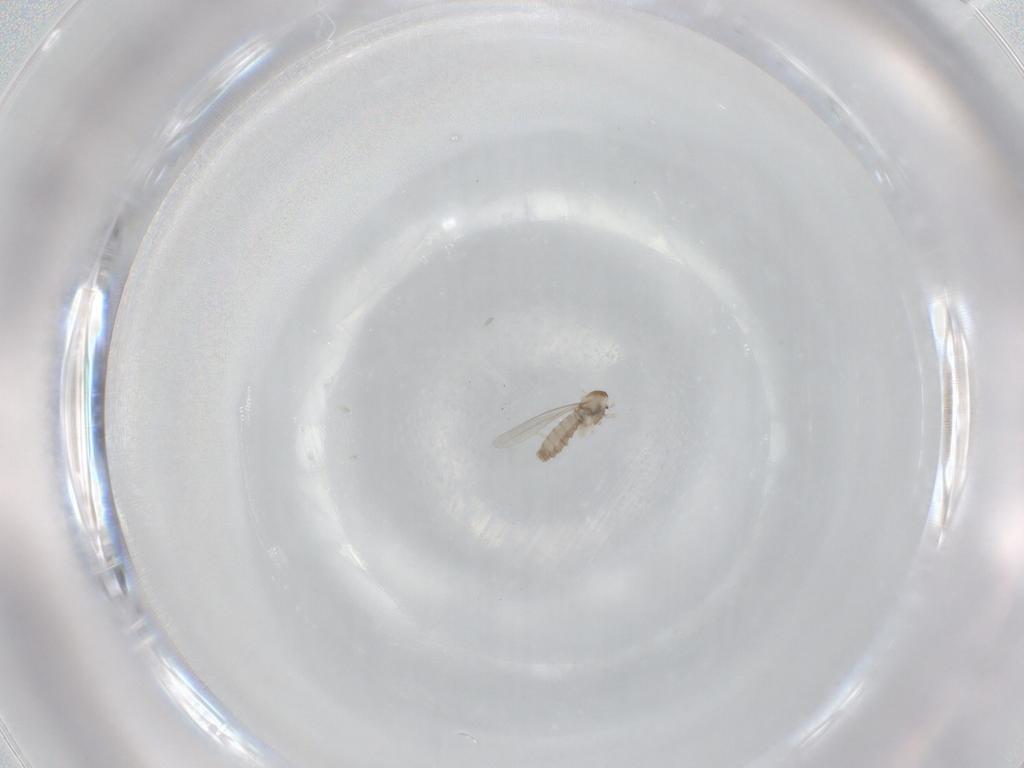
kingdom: Animalia
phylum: Arthropoda
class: Insecta
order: Diptera
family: Cecidomyiidae
